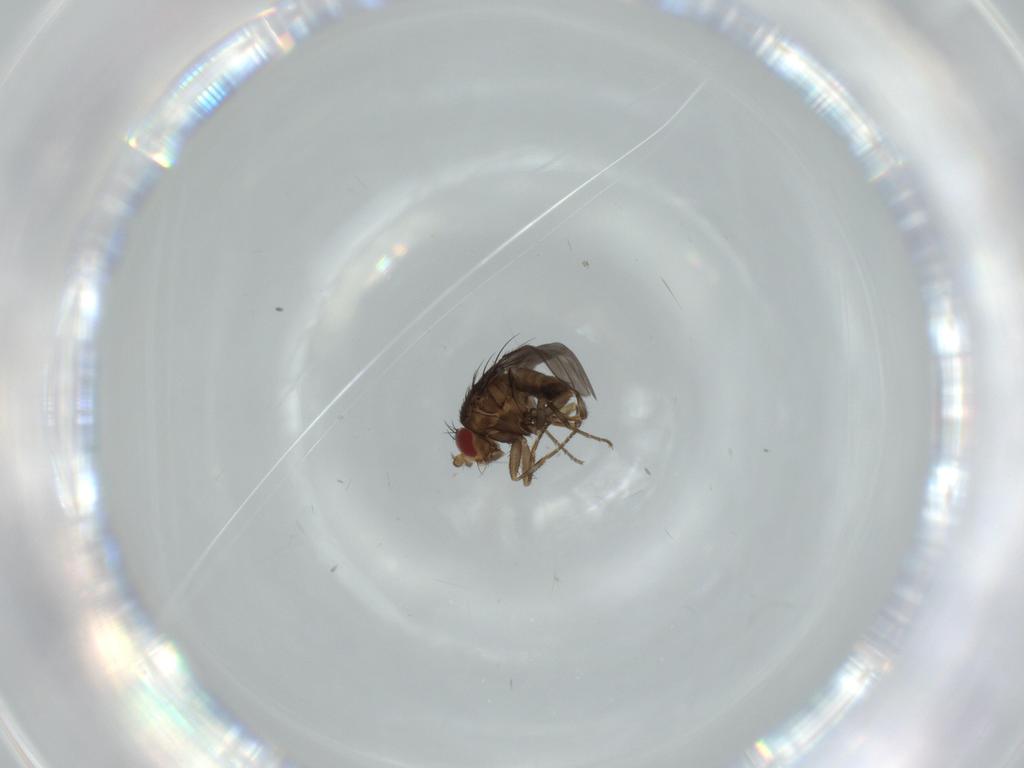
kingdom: Animalia
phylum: Arthropoda
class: Insecta
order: Diptera
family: Sphaeroceridae
